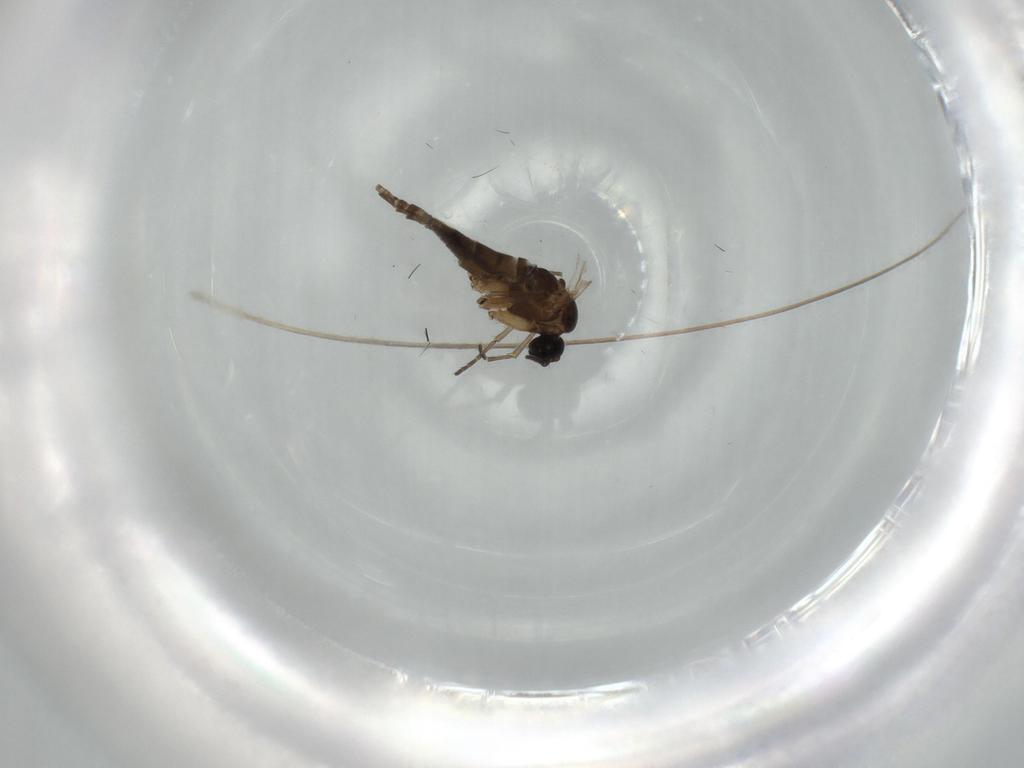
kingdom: Animalia
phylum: Arthropoda
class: Insecta
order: Diptera
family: Sciaridae
